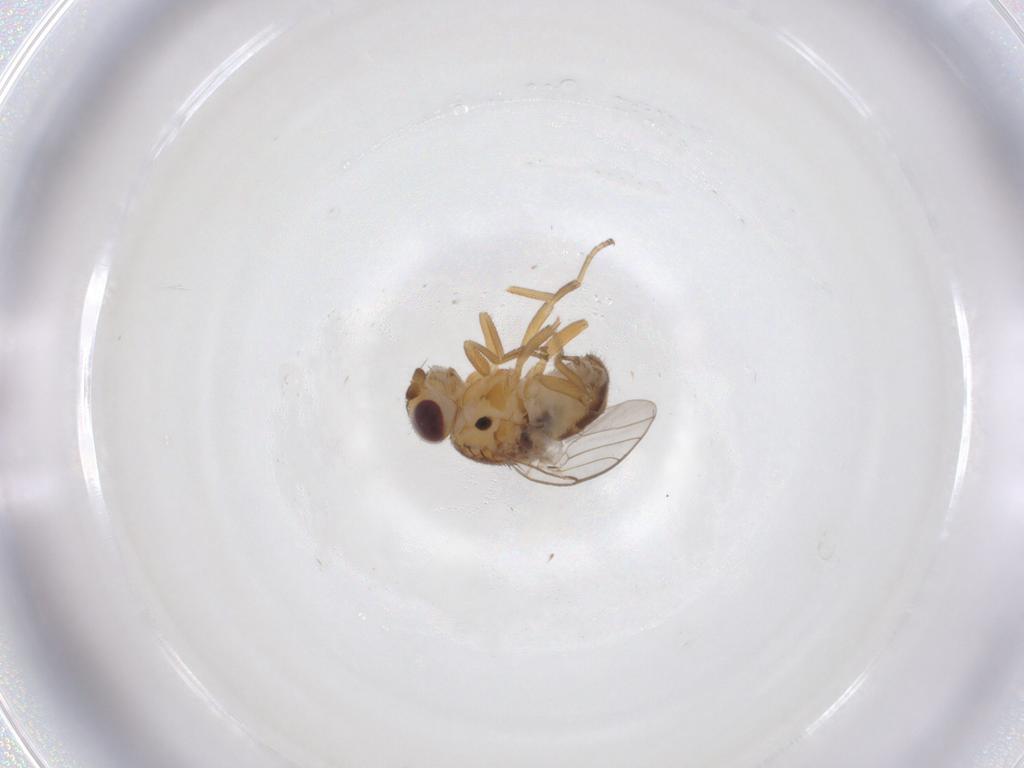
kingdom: Animalia
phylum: Arthropoda
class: Insecta
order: Diptera
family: Chloropidae
